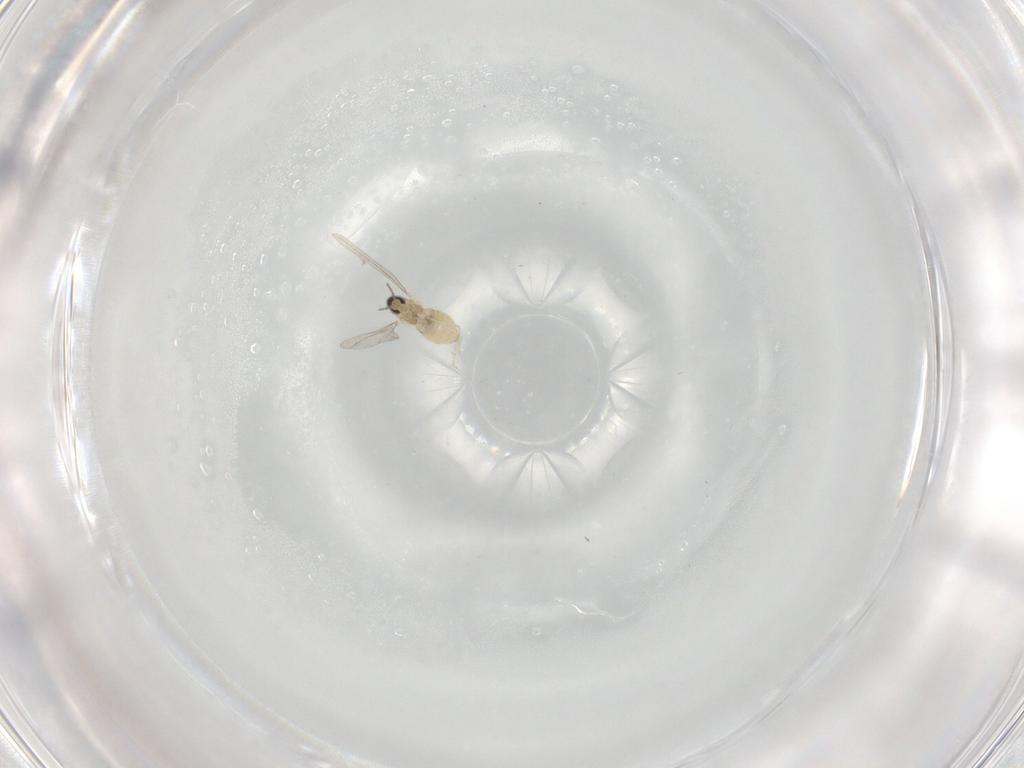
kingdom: Animalia
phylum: Arthropoda
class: Insecta
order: Diptera
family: Cecidomyiidae
